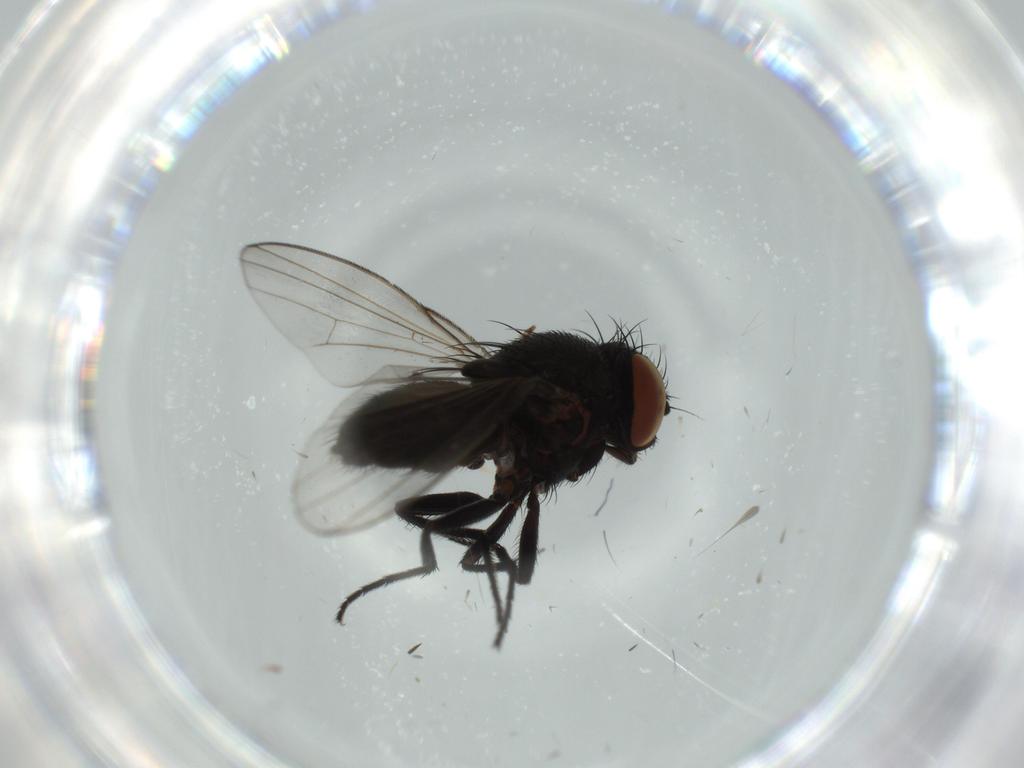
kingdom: Animalia
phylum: Arthropoda
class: Insecta
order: Diptera
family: Milichiidae
